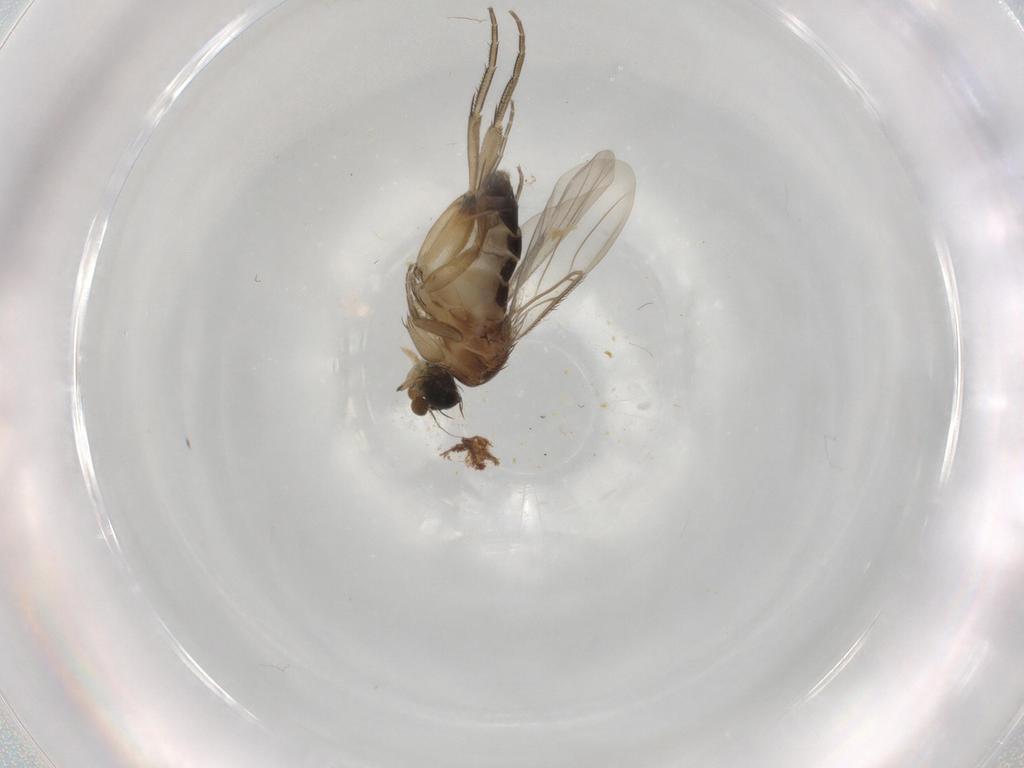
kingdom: Animalia
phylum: Arthropoda
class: Insecta
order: Diptera
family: Phoridae
